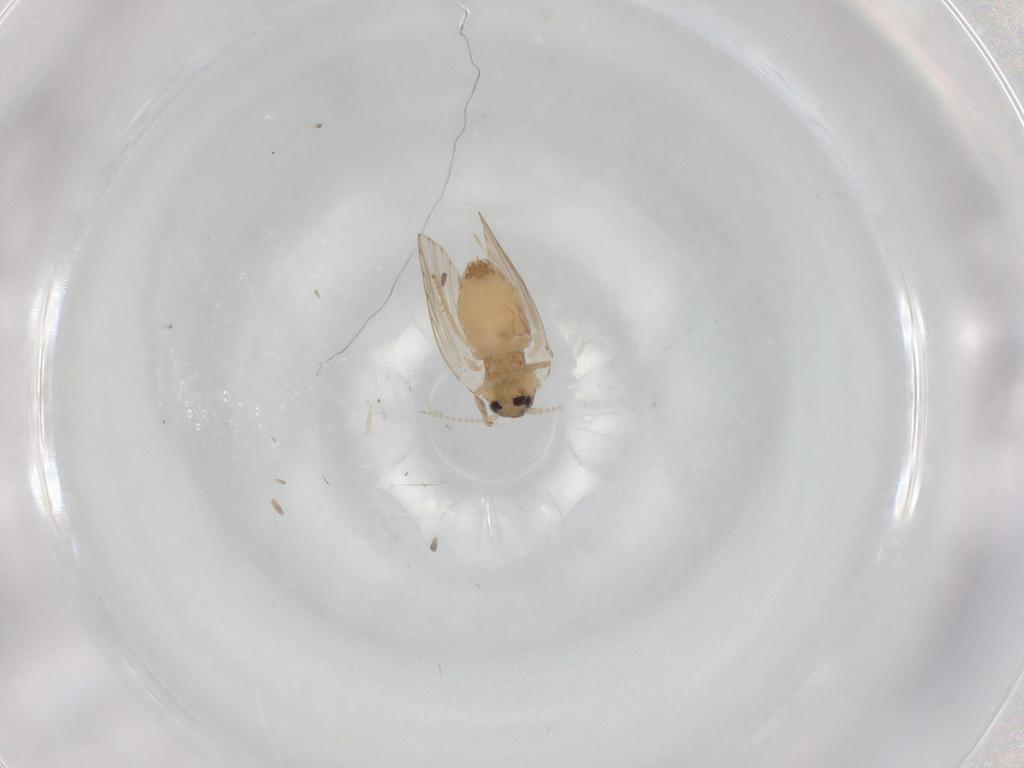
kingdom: Animalia
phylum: Arthropoda
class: Insecta
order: Diptera
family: Psychodidae
